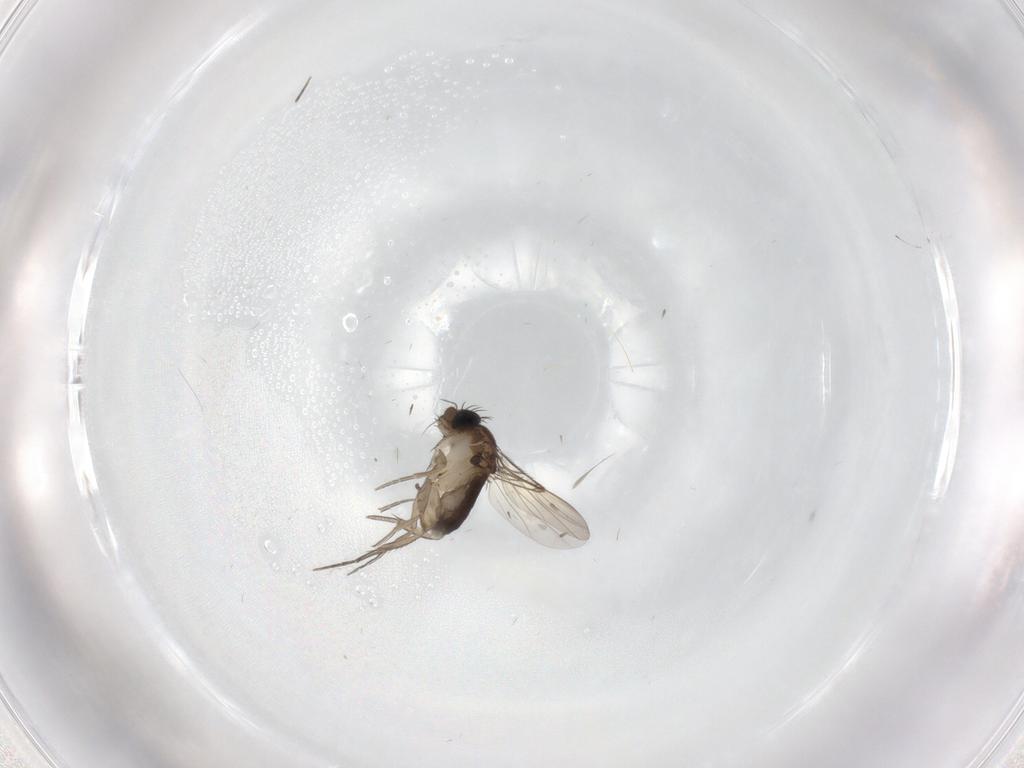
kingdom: Animalia
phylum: Arthropoda
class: Insecta
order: Diptera
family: Phoridae
